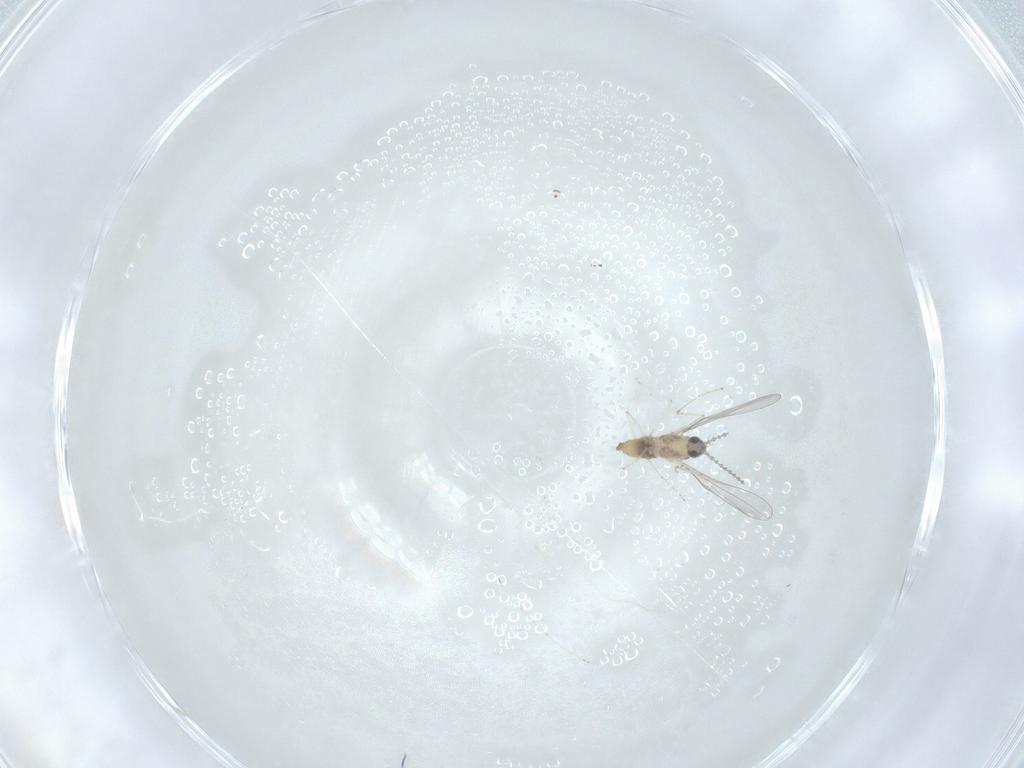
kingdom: Animalia
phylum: Arthropoda
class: Insecta
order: Diptera
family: Cecidomyiidae
